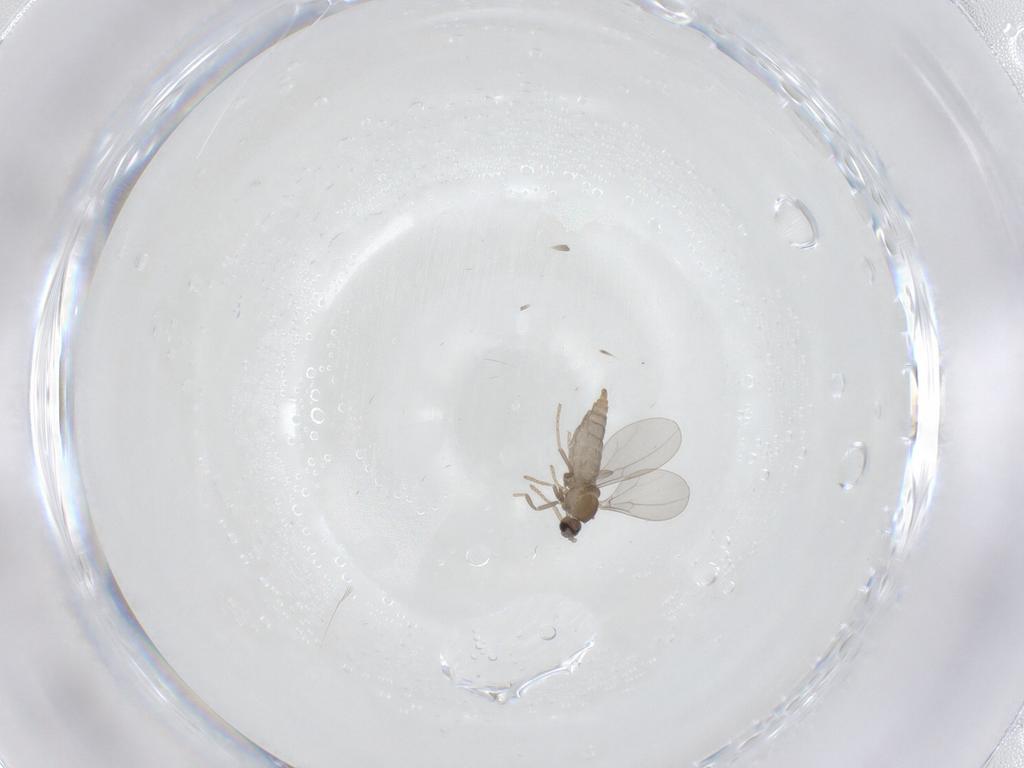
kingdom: Animalia
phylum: Arthropoda
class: Insecta
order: Diptera
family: Cecidomyiidae
